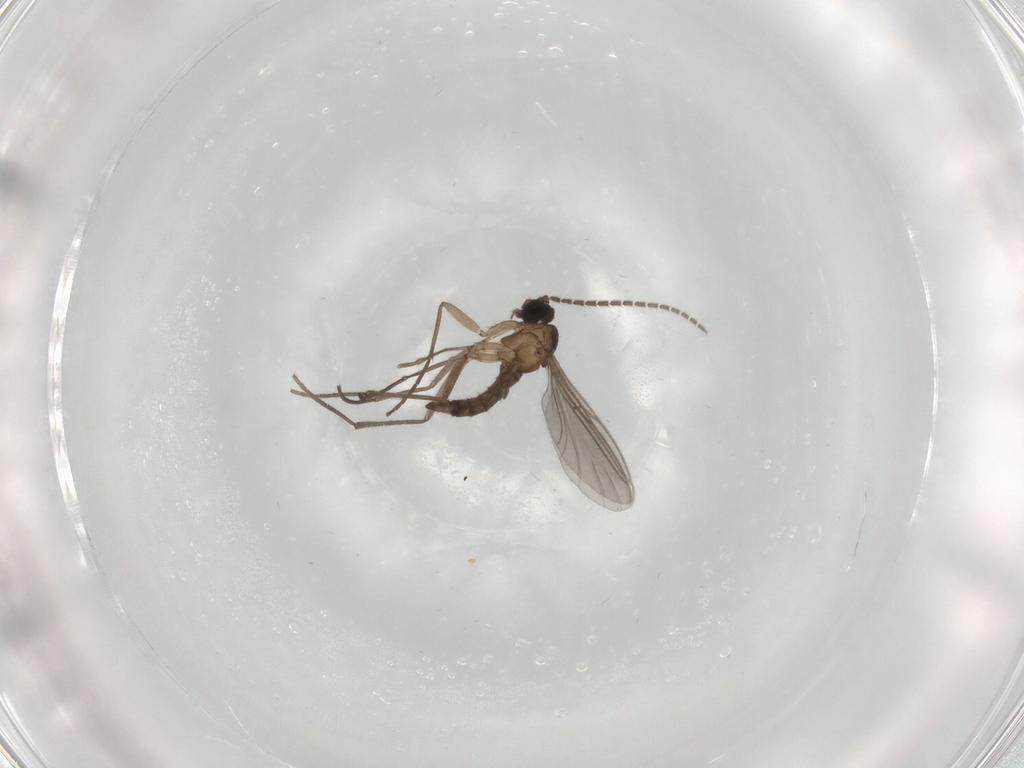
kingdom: Animalia
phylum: Arthropoda
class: Insecta
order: Diptera
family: Sciaridae
